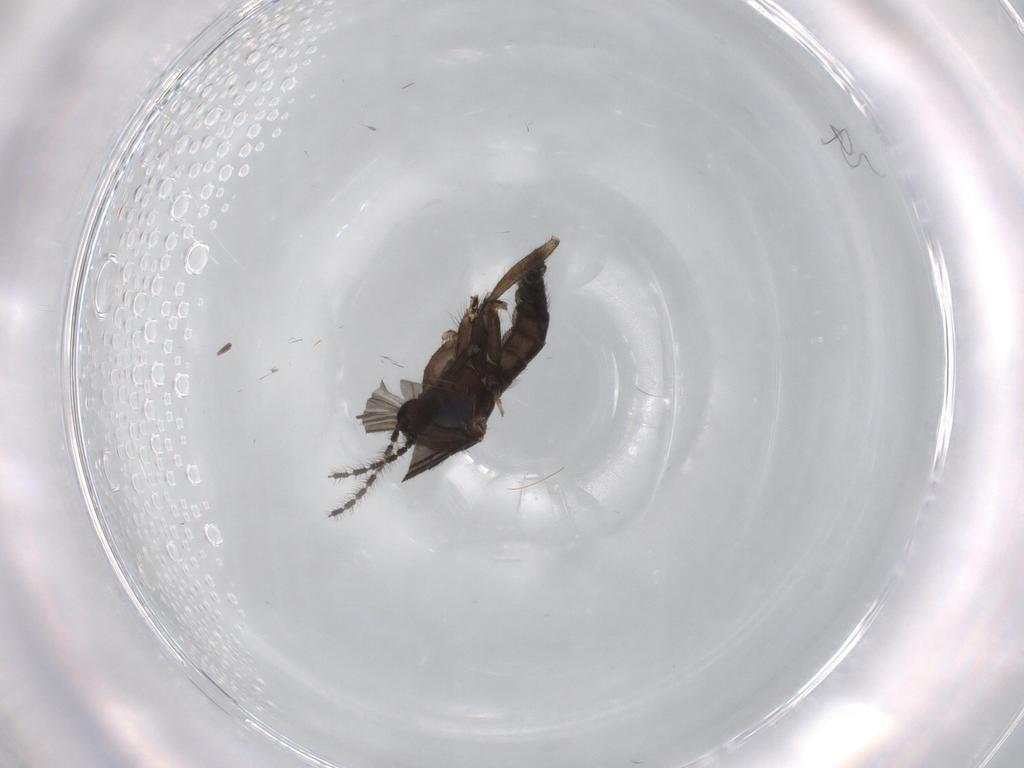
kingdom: Animalia
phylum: Arthropoda
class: Insecta
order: Diptera
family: Sciaridae
